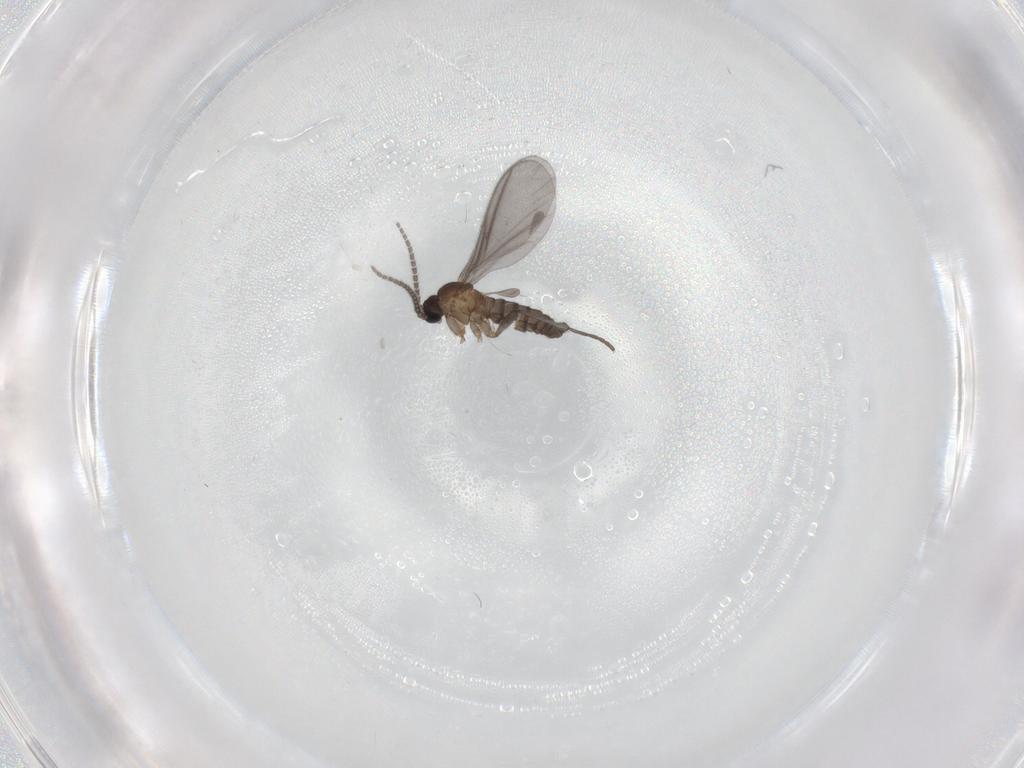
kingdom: Animalia
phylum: Arthropoda
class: Insecta
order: Diptera
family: Sciaridae
